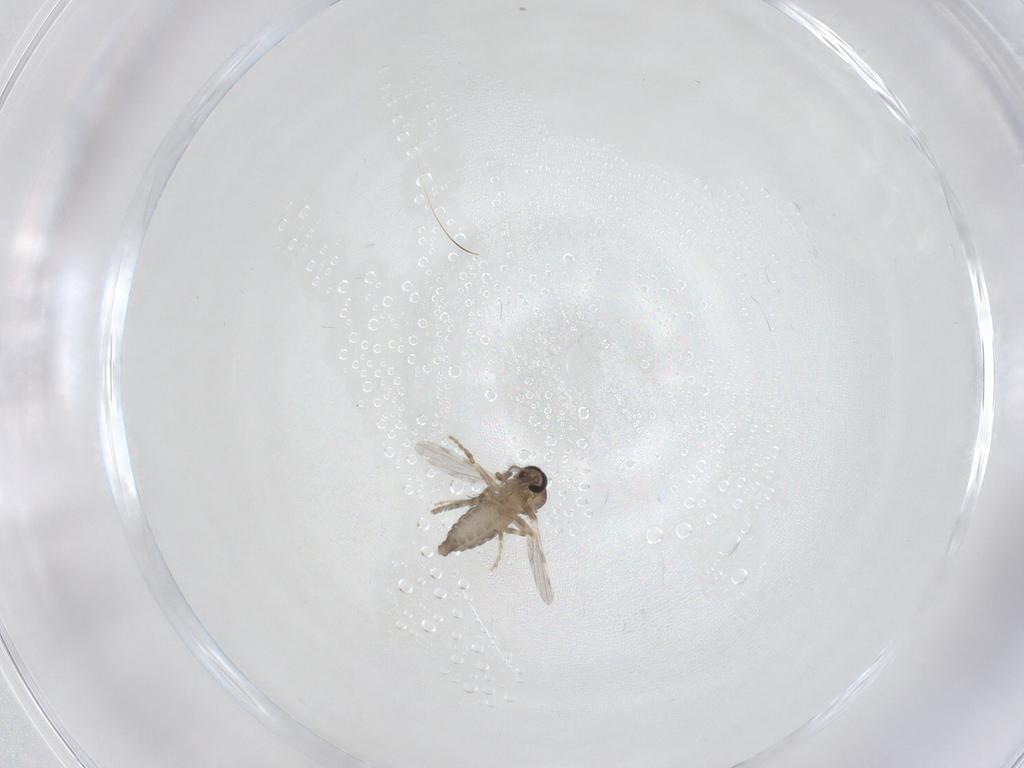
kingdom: Animalia
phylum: Arthropoda
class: Insecta
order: Diptera
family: Ceratopogonidae
